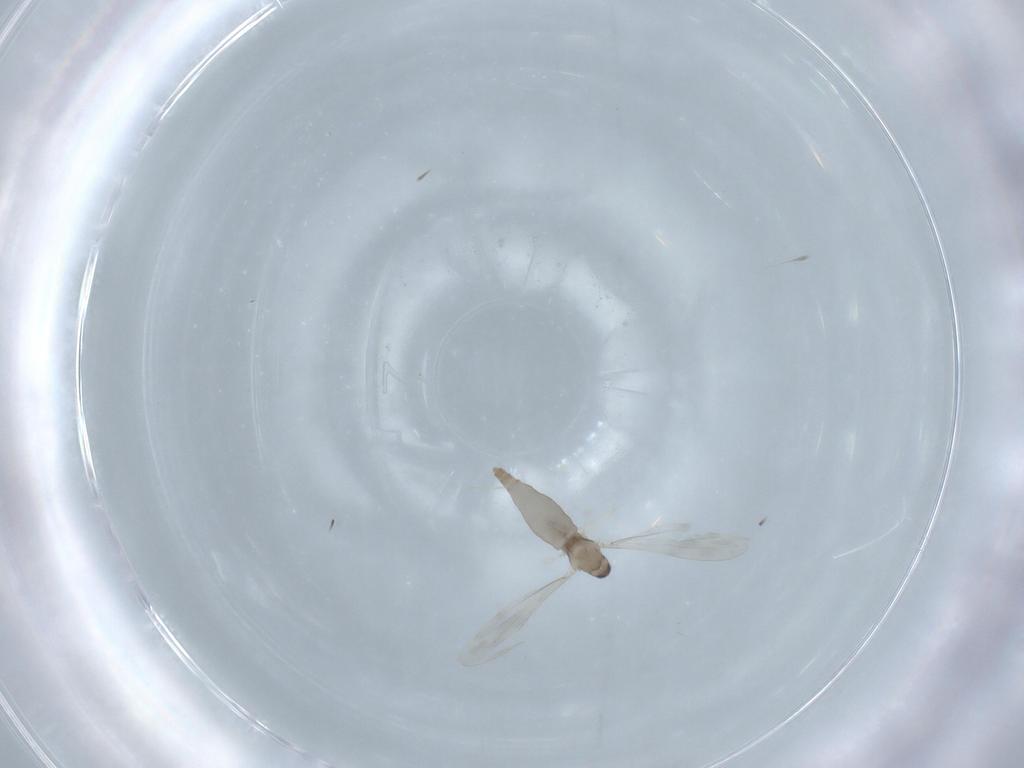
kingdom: Animalia
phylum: Arthropoda
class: Insecta
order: Diptera
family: Cecidomyiidae
